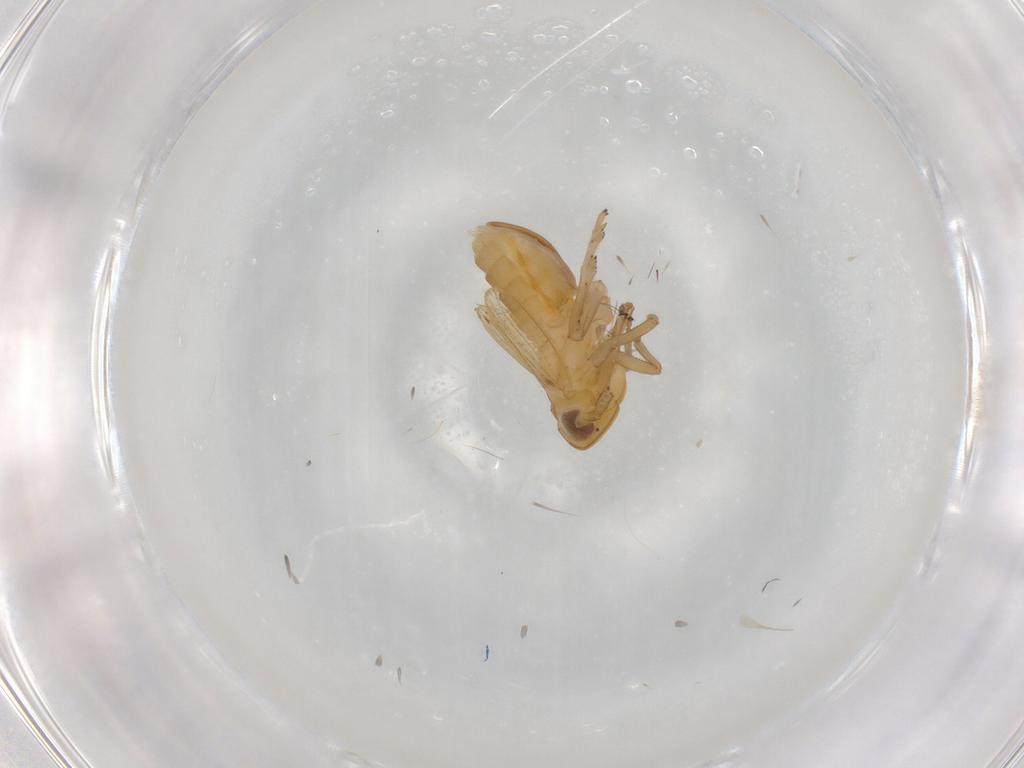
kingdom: Animalia
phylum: Arthropoda
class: Insecta
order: Hemiptera
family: Delphacidae
